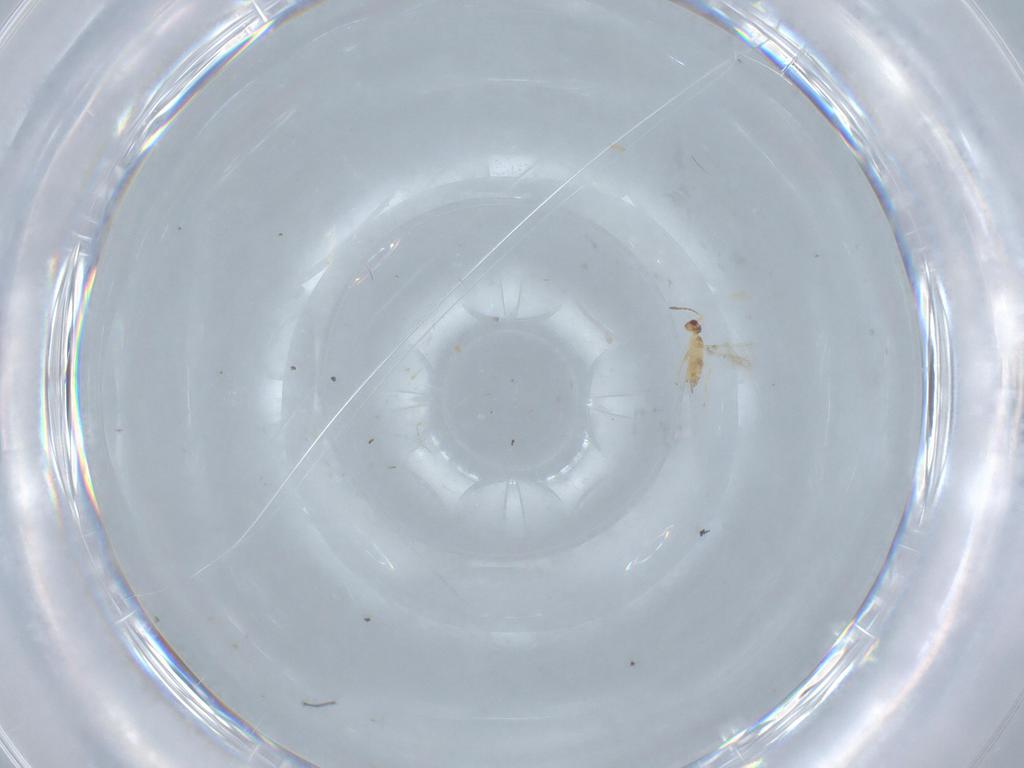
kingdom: Animalia
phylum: Arthropoda
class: Insecta
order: Hymenoptera
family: Mymaridae
